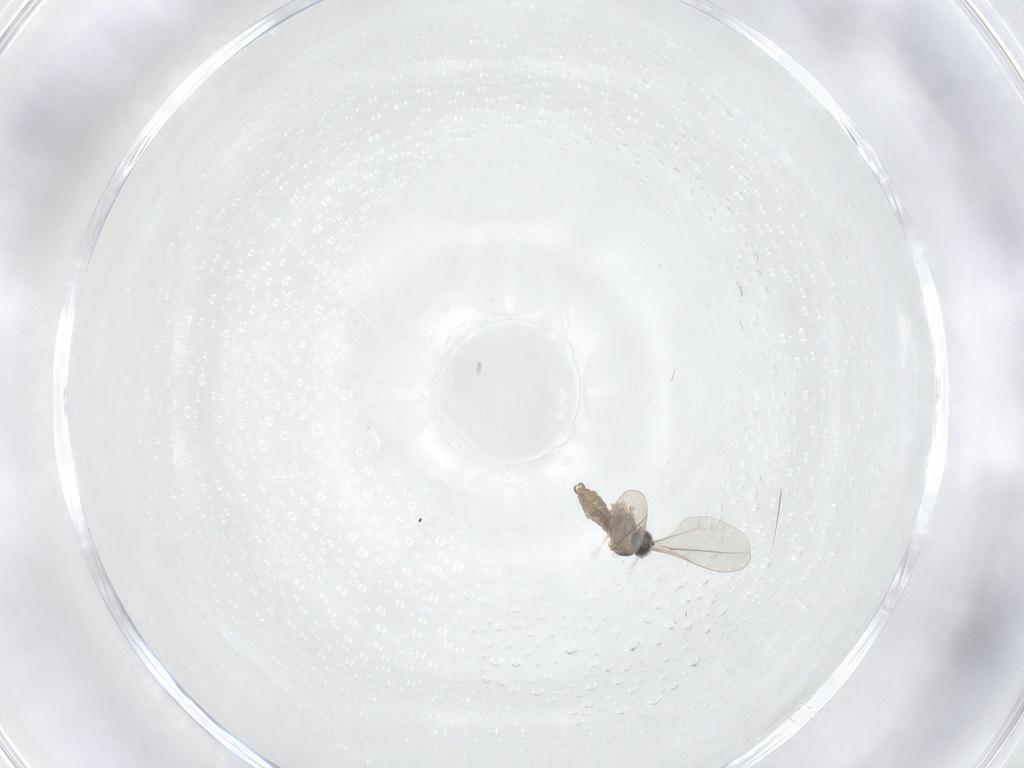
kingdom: Animalia
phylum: Arthropoda
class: Insecta
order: Diptera
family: Cecidomyiidae
